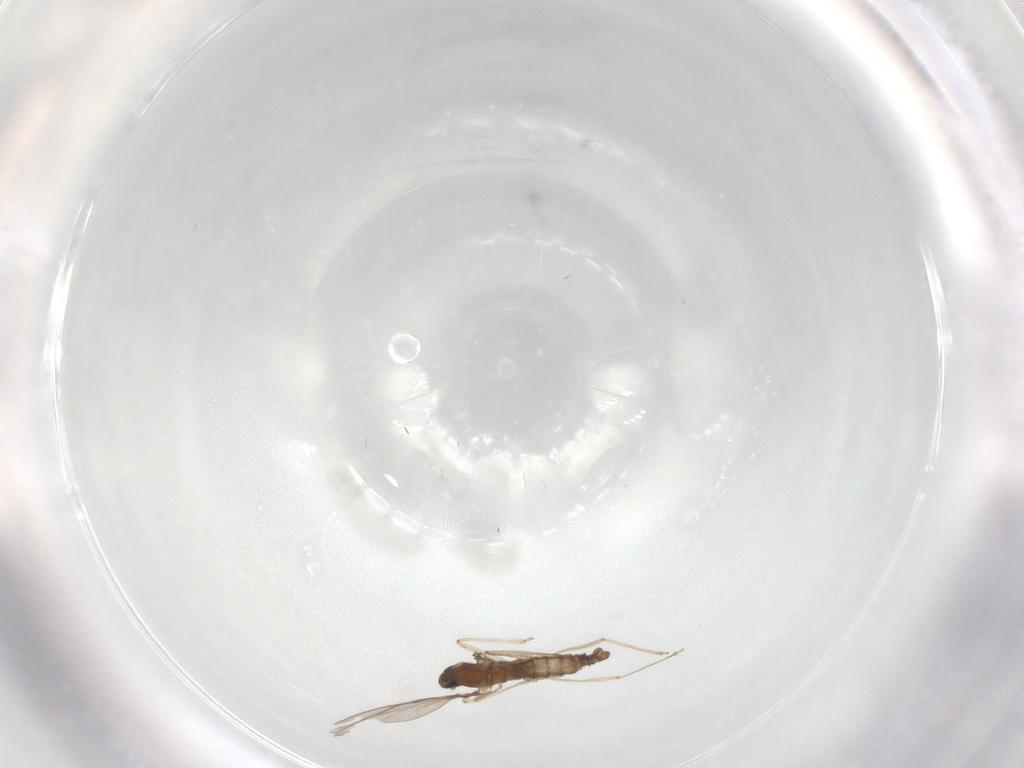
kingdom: Animalia
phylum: Arthropoda
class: Insecta
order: Diptera
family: Cecidomyiidae
